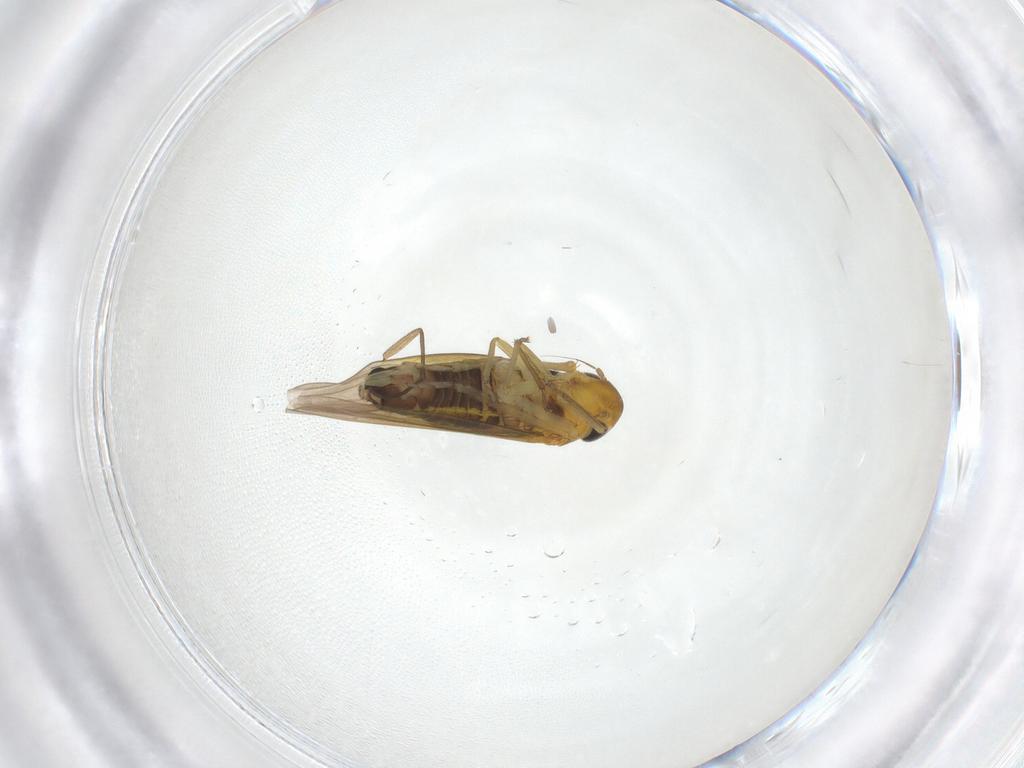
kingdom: Animalia
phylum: Arthropoda
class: Insecta
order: Hemiptera
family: Cicadellidae
